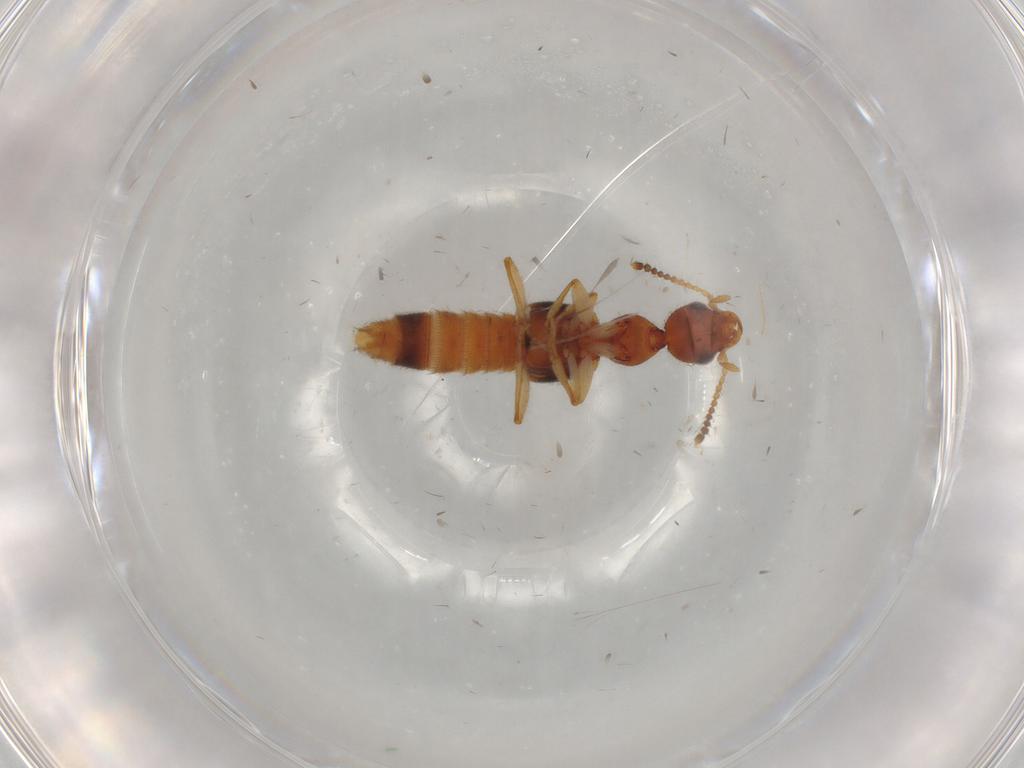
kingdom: Animalia
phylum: Arthropoda
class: Insecta
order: Coleoptera
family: Staphylinidae
